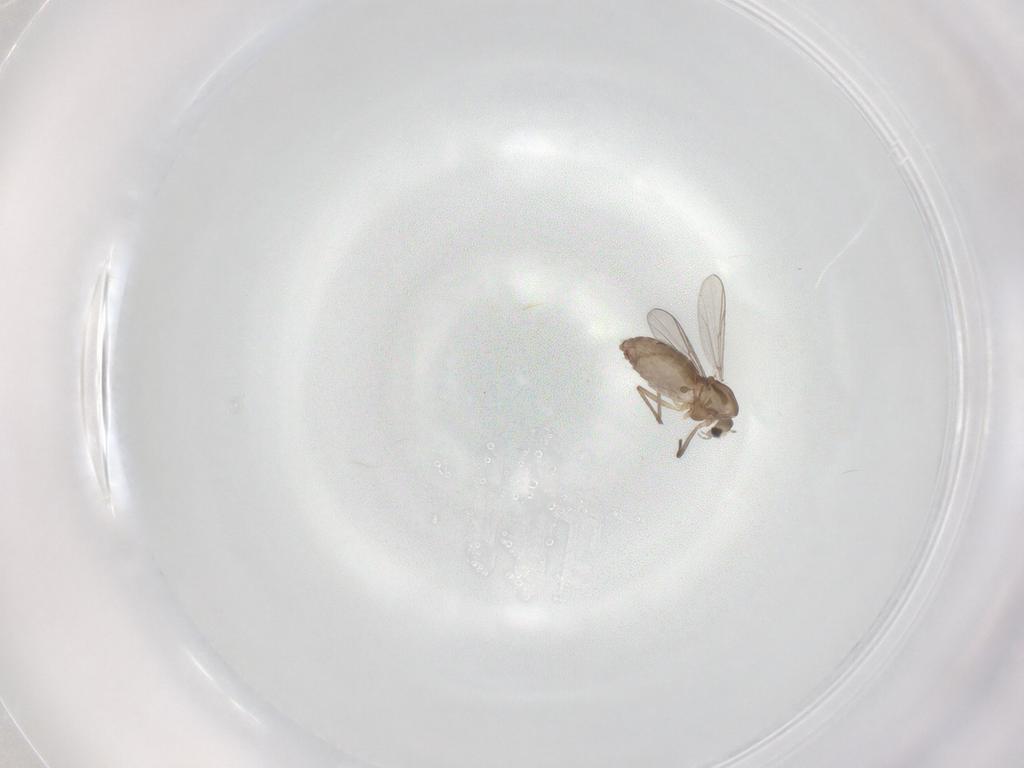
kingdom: Animalia
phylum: Arthropoda
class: Insecta
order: Diptera
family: Chironomidae
